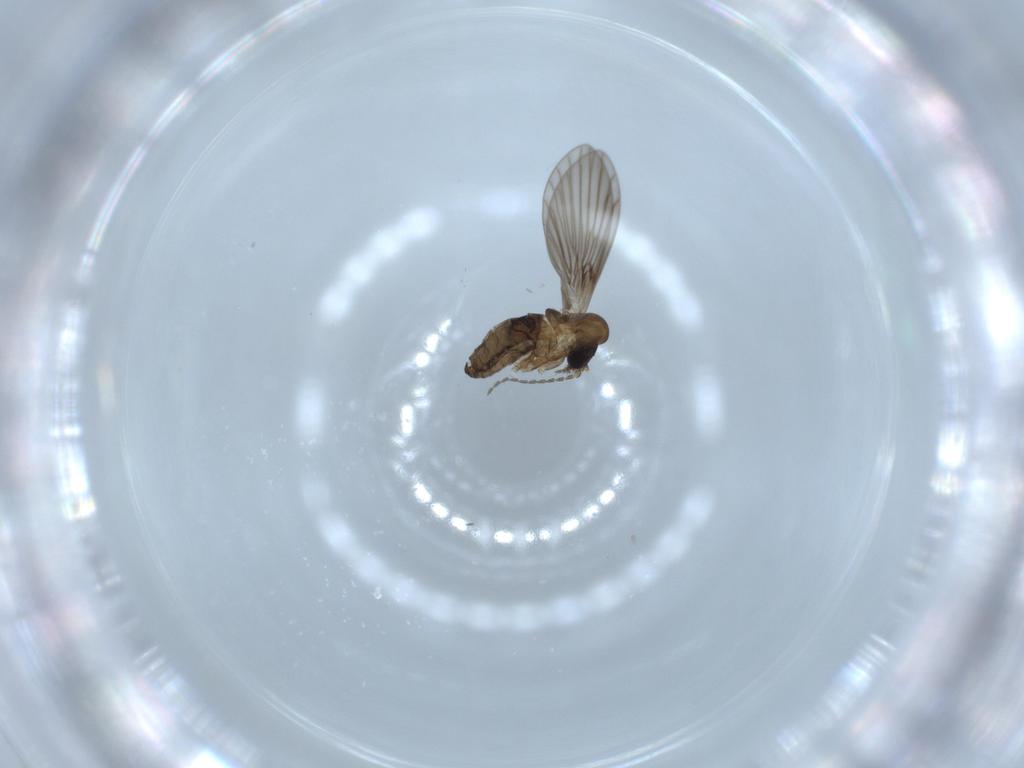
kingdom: Animalia
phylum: Arthropoda
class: Insecta
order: Diptera
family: Psychodidae
